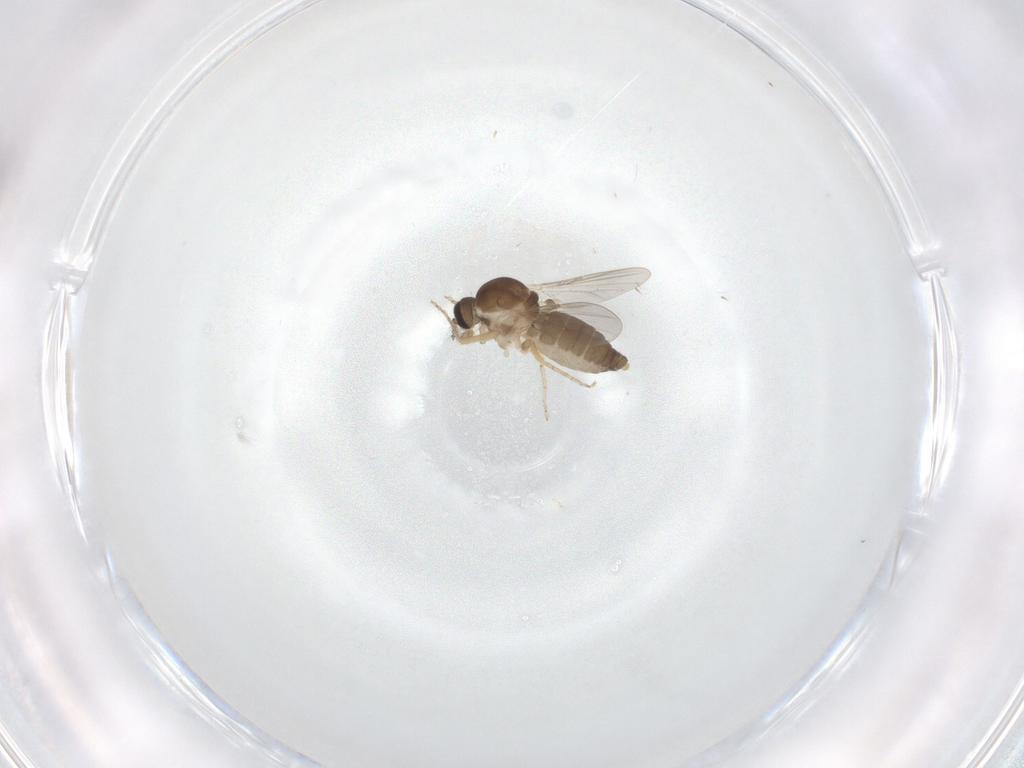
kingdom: Animalia
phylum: Arthropoda
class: Insecta
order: Diptera
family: Ceratopogonidae
